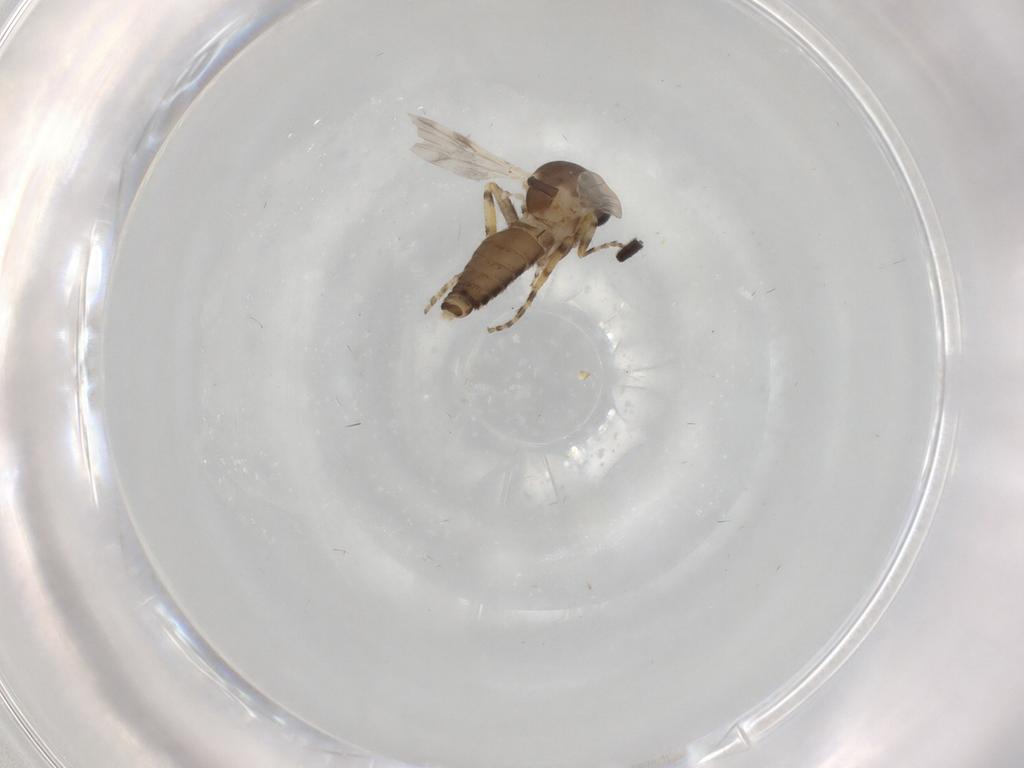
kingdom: Animalia
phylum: Arthropoda
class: Insecta
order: Diptera
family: Ceratopogonidae
